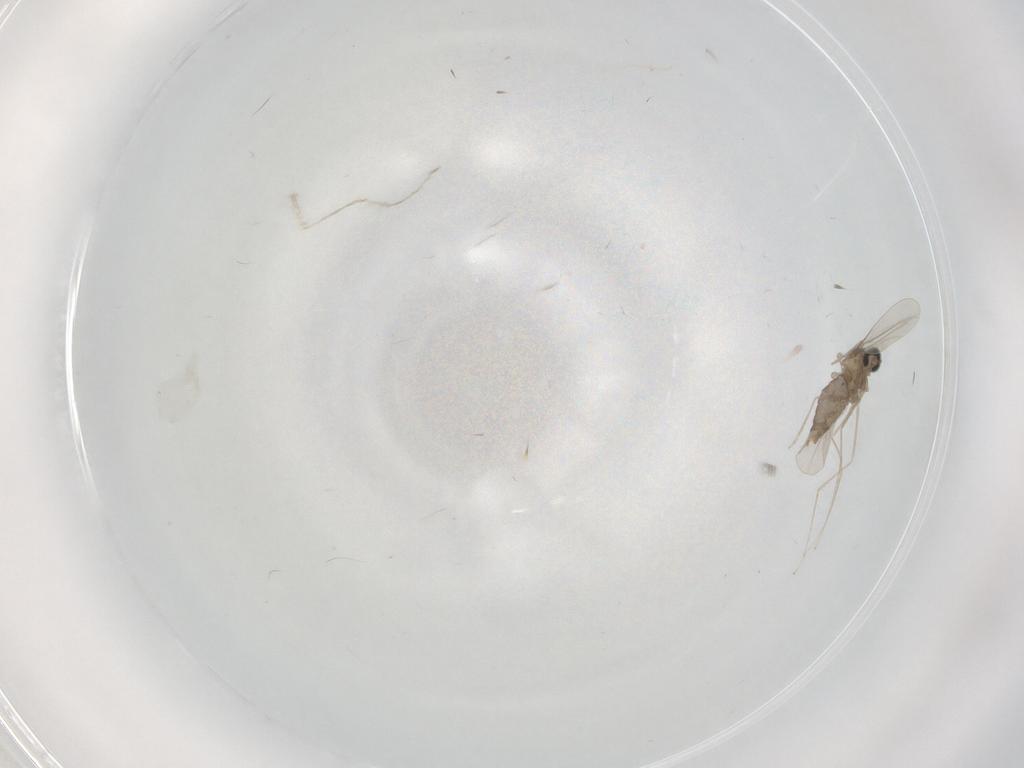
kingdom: Animalia
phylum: Arthropoda
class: Insecta
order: Diptera
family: Cecidomyiidae
